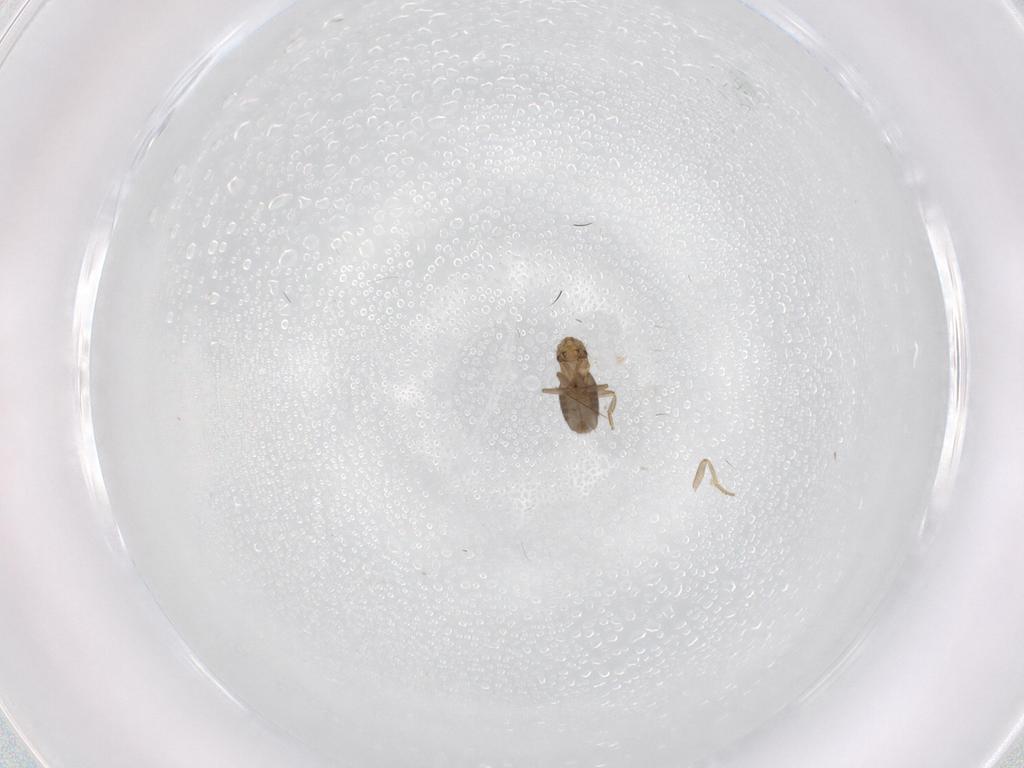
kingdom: Animalia
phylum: Arthropoda
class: Insecta
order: Diptera
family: Phoridae
